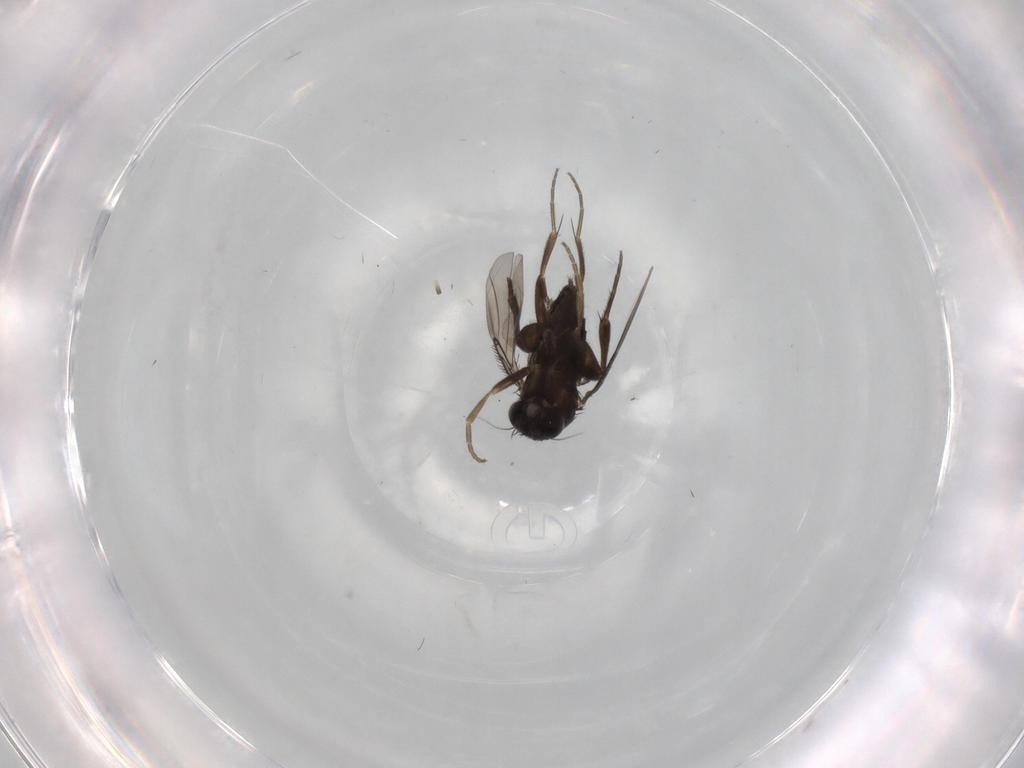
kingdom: Animalia
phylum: Arthropoda
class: Insecta
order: Diptera
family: Phoridae
